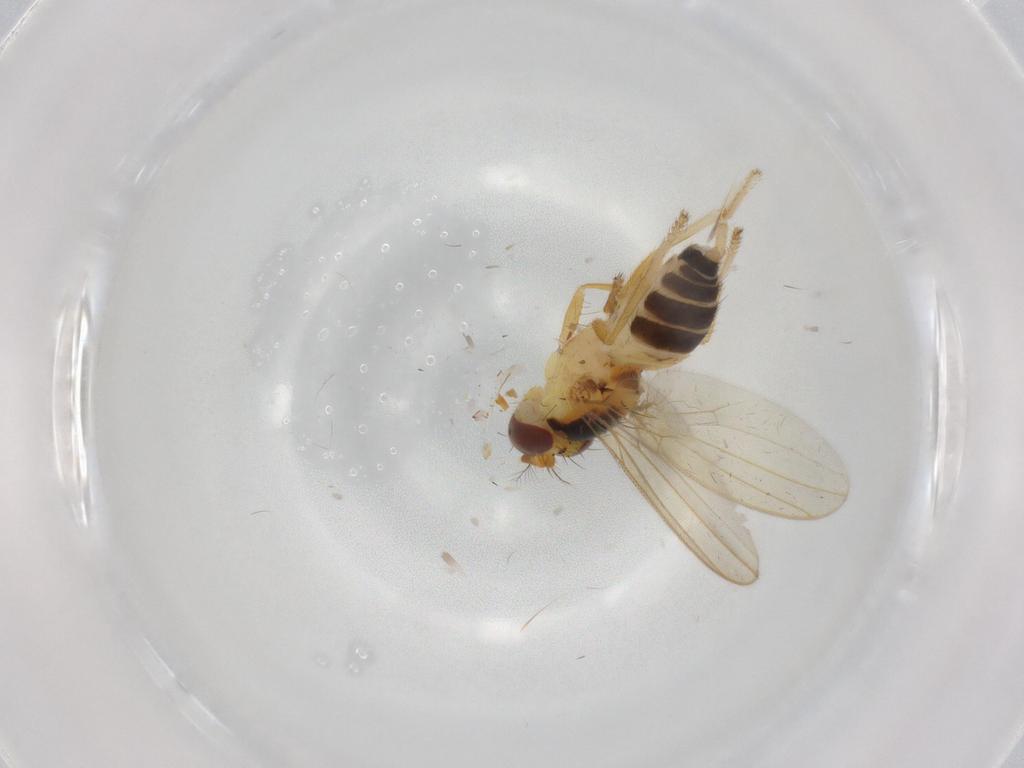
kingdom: Animalia
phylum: Arthropoda
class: Insecta
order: Diptera
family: Periscelididae
